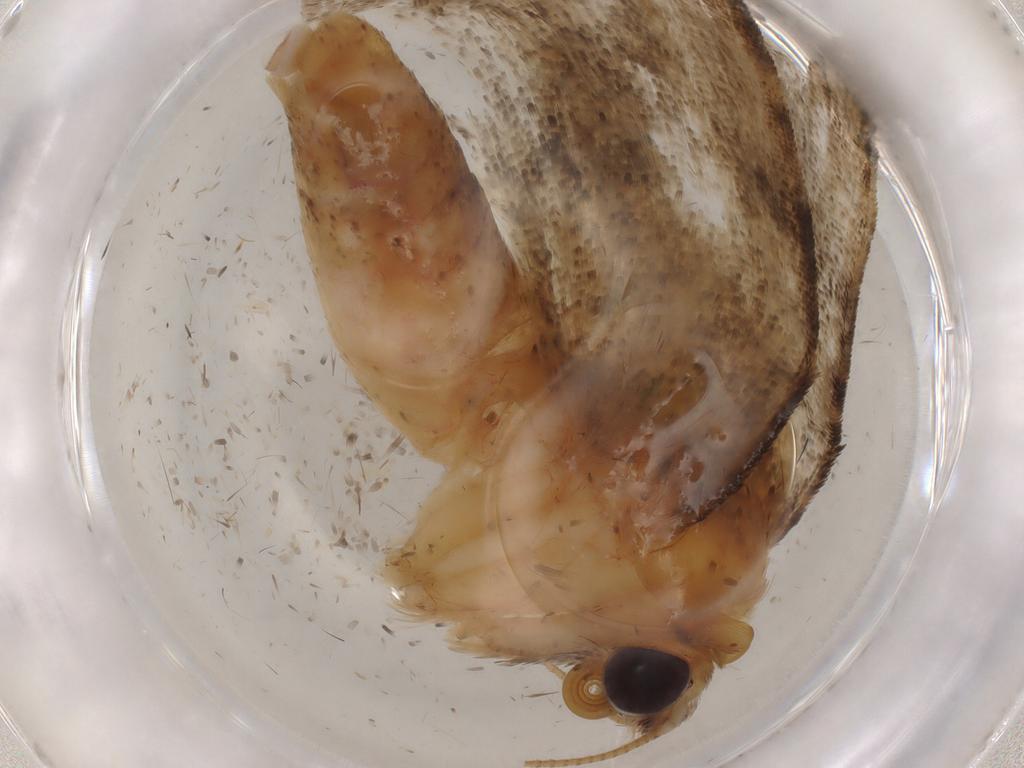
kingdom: Animalia
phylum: Arthropoda
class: Insecta
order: Lepidoptera
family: Erebidae
